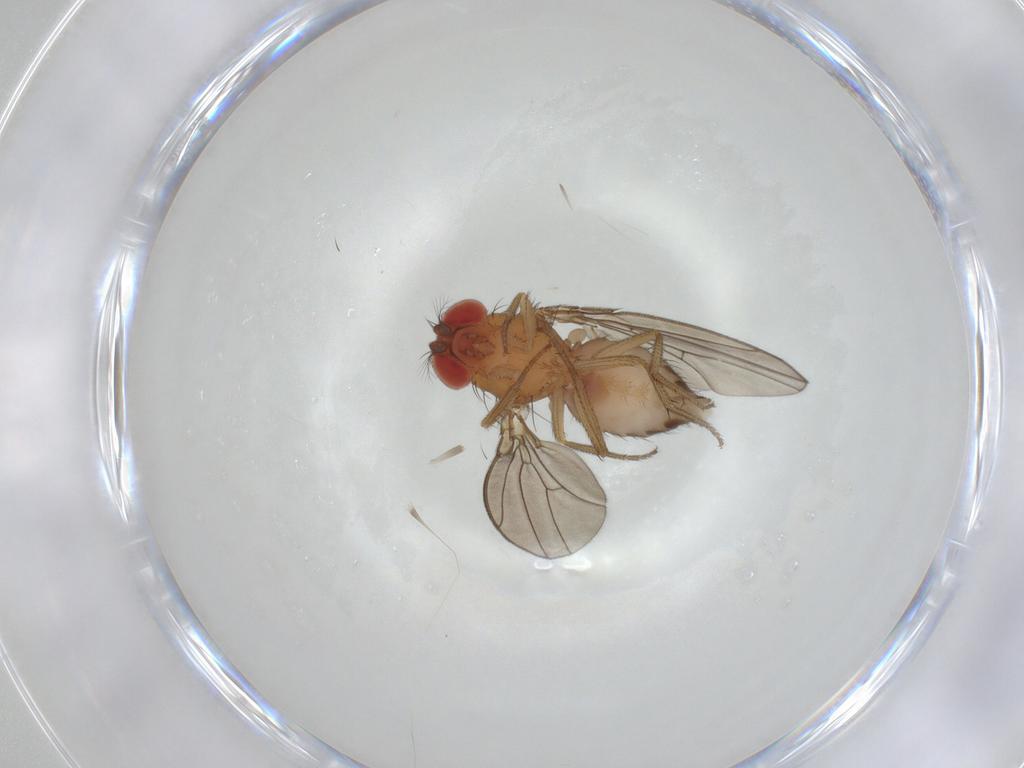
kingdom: Animalia
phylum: Arthropoda
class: Insecta
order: Diptera
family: Drosophilidae
